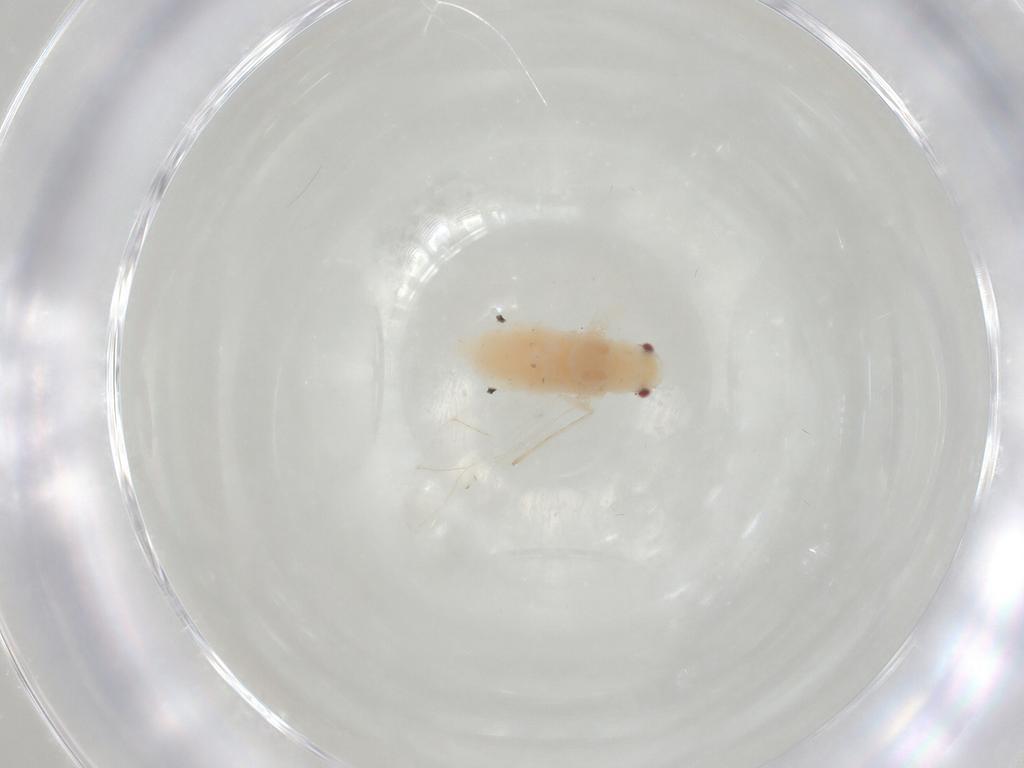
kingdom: Animalia
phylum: Arthropoda
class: Insecta
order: Hemiptera
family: Aphididae
